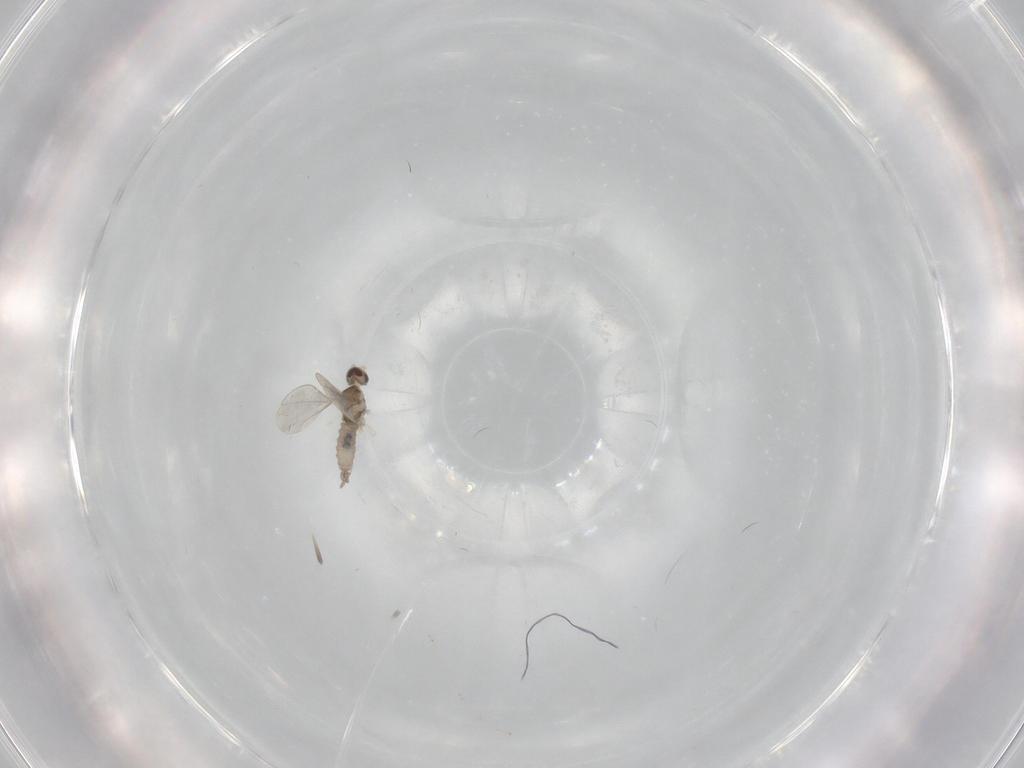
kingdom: Animalia
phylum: Arthropoda
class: Insecta
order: Diptera
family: Cecidomyiidae
